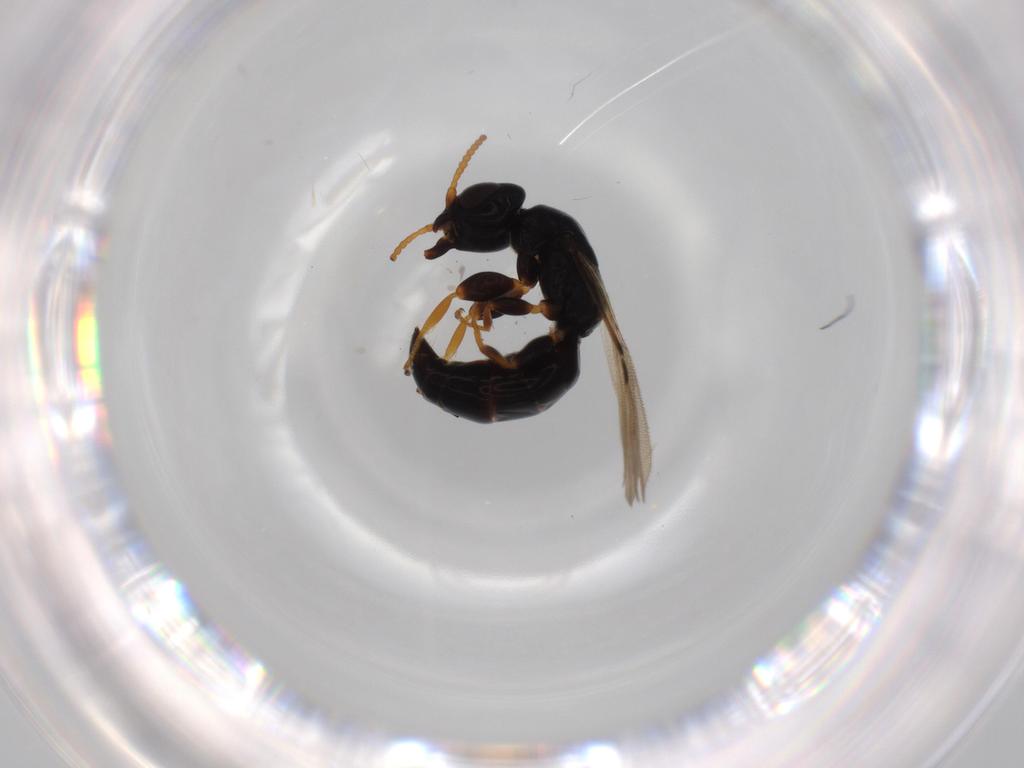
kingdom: Animalia
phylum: Arthropoda
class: Insecta
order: Hymenoptera
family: Bethylidae
